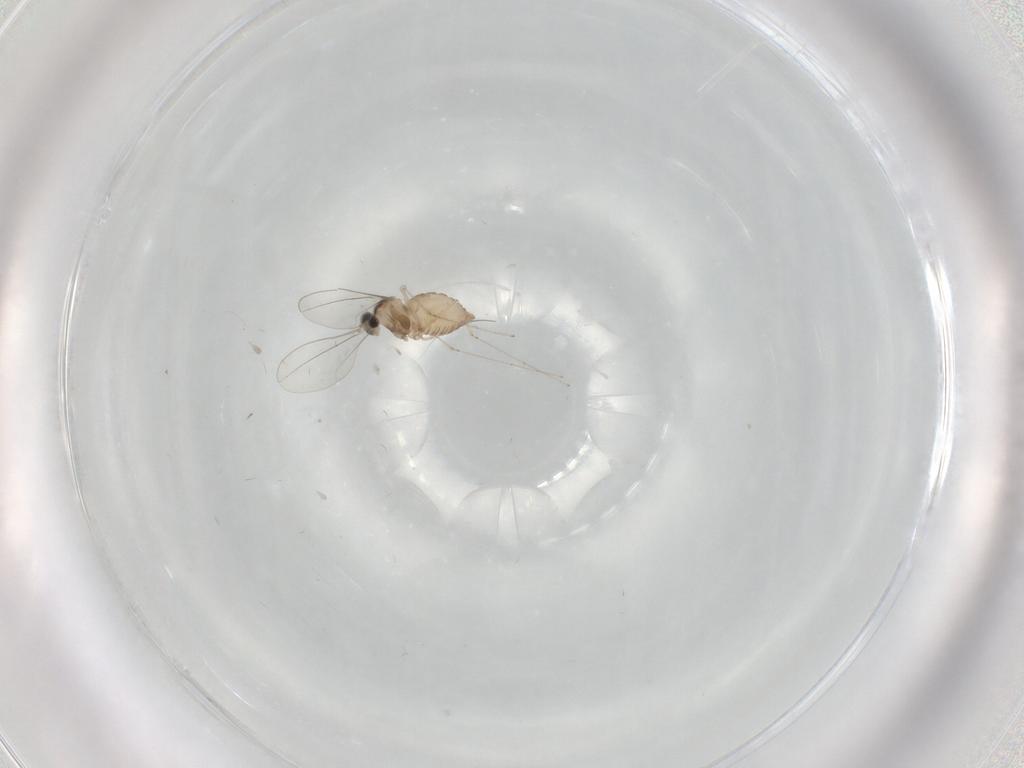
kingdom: Animalia
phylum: Arthropoda
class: Insecta
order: Diptera
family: Cecidomyiidae
